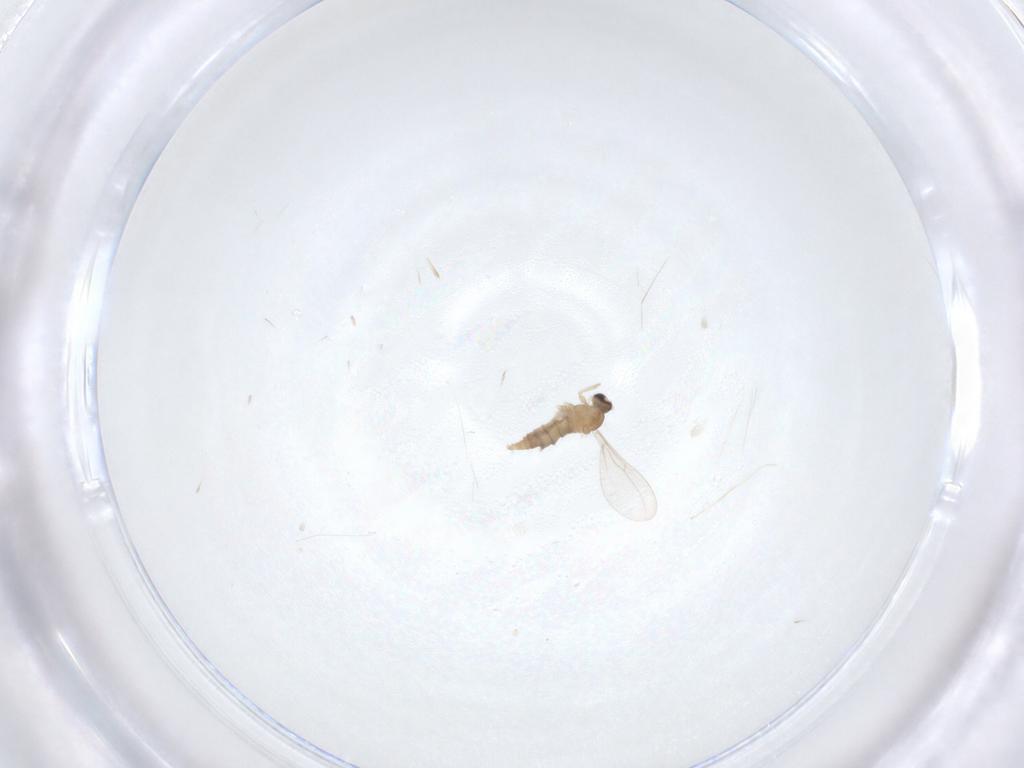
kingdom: Animalia
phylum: Arthropoda
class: Insecta
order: Diptera
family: Cecidomyiidae
